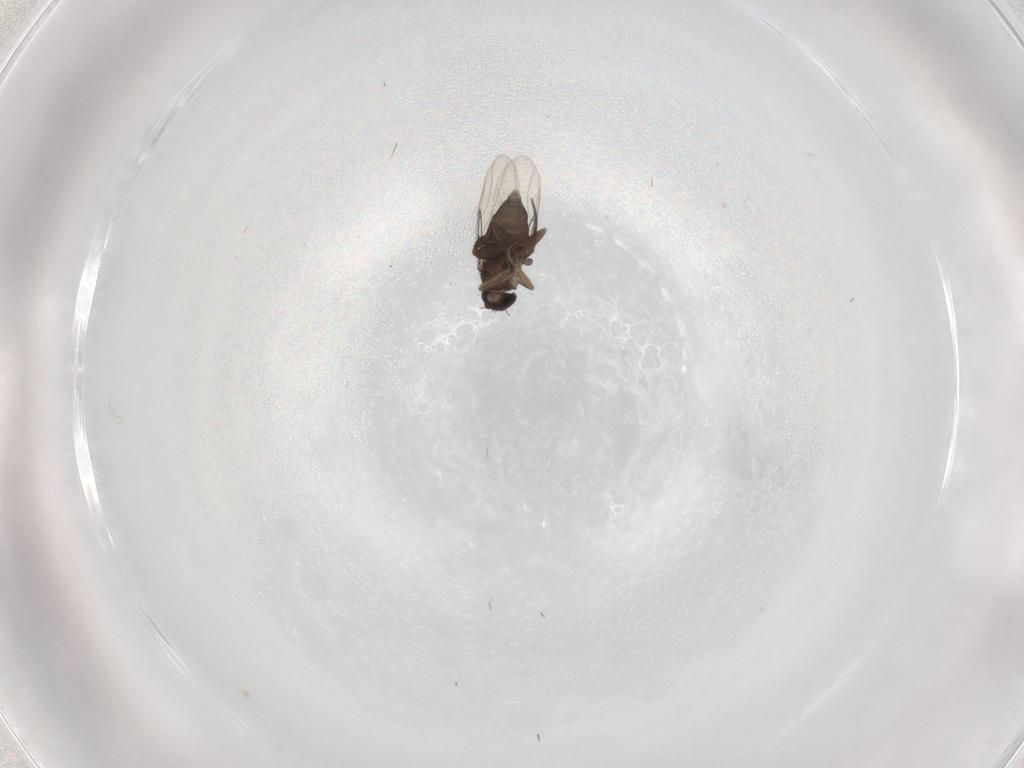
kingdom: Animalia
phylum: Arthropoda
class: Insecta
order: Diptera
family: Phoridae
